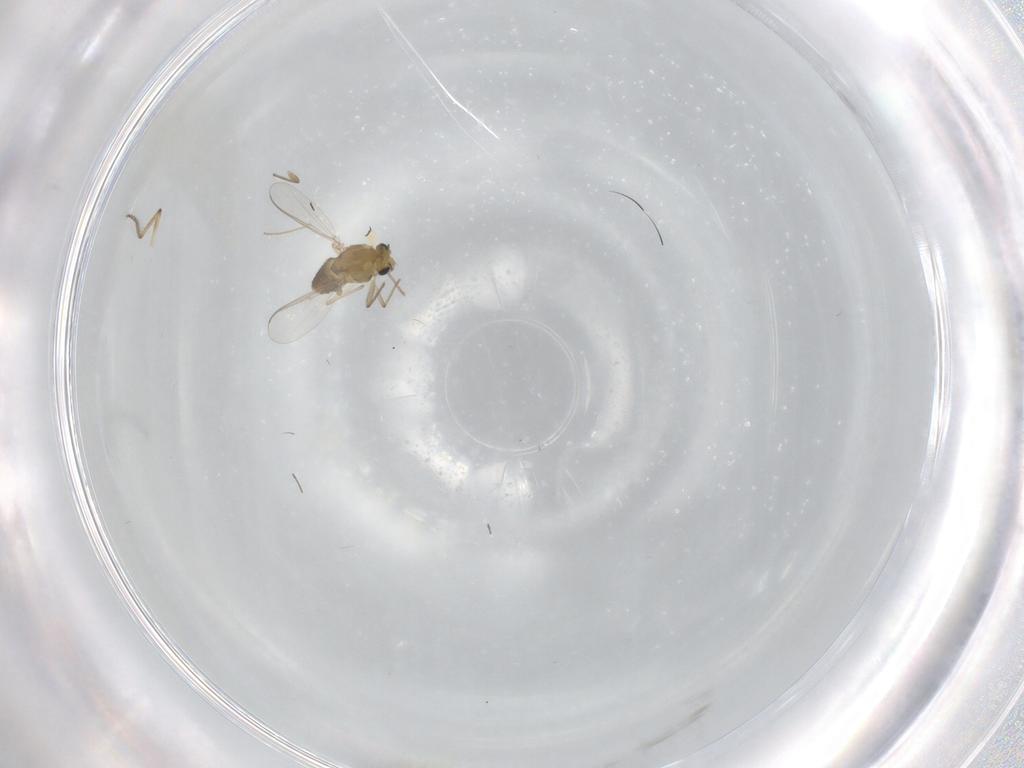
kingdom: Animalia
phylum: Arthropoda
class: Insecta
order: Diptera
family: Chironomidae
